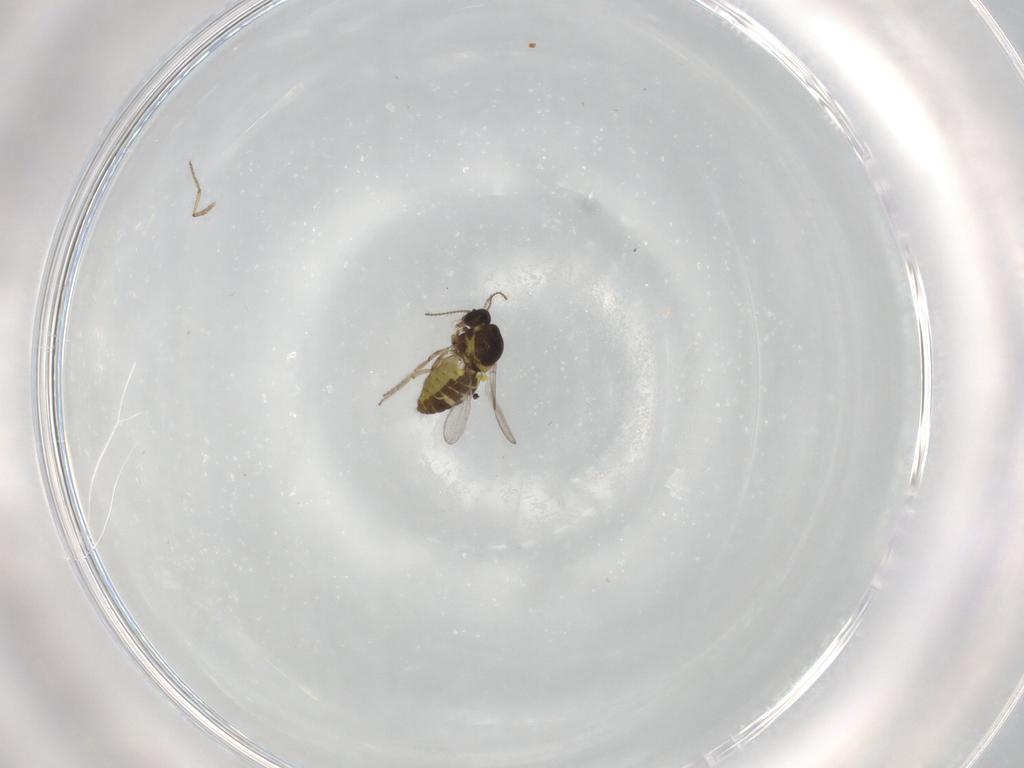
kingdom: Animalia
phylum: Arthropoda
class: Insecta
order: Diptera
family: Ceratopogonidae
